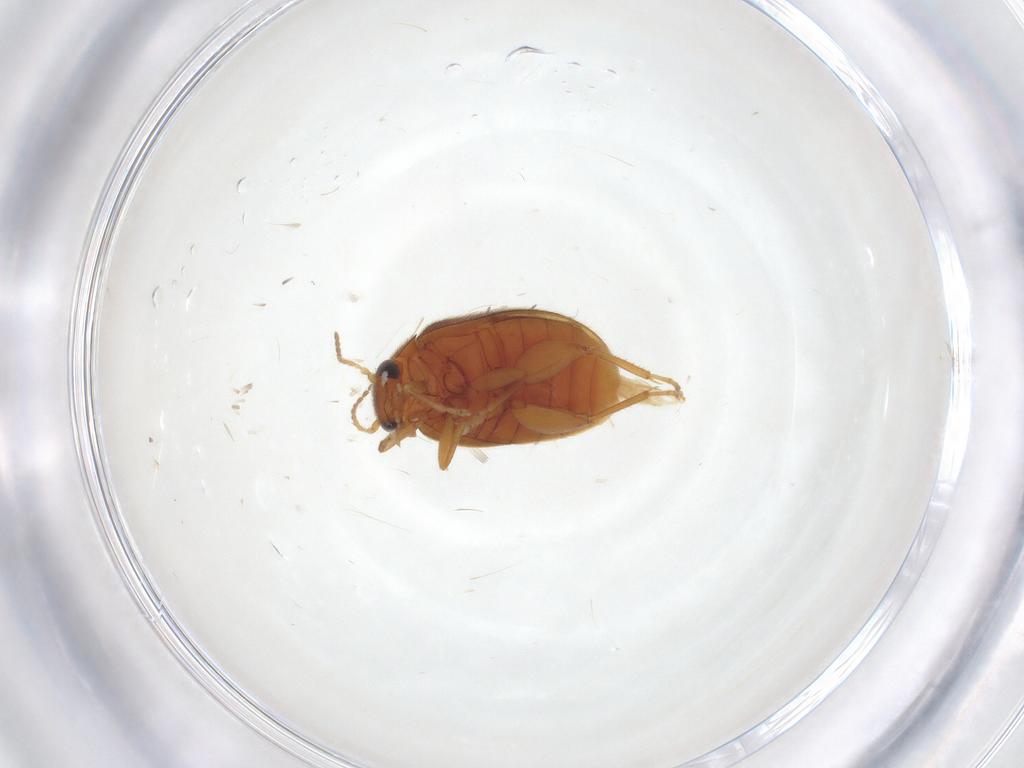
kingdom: Animalia
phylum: Arthropoda
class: Insecta
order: Coleoptera
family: Scirtidae
